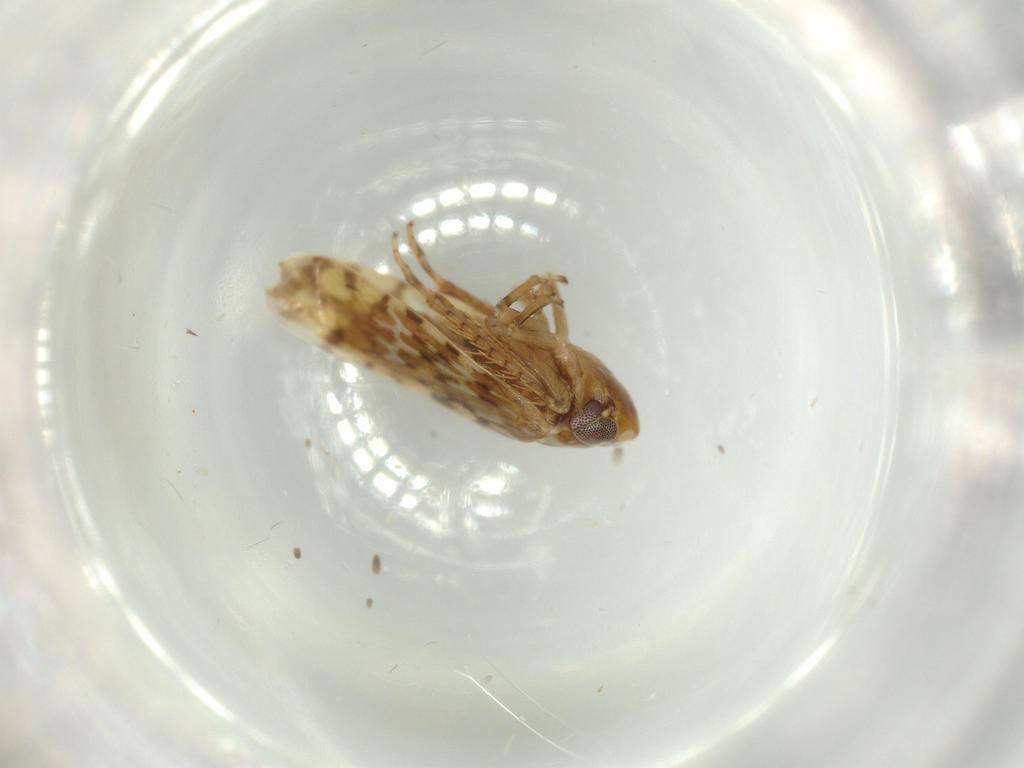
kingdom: Animalia
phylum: Arthropoda
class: Insecta
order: Hemiptera
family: Cicadellidae
